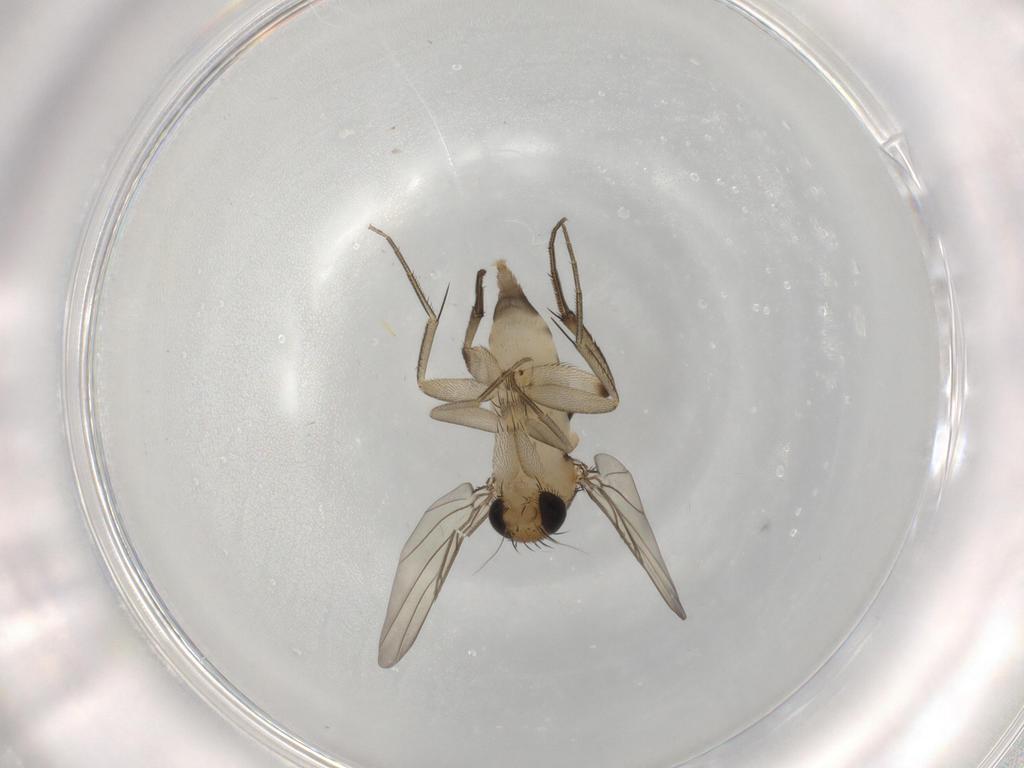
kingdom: Animalia
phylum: Arthropoda
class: Insecta
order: Diptera
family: Phoridae
